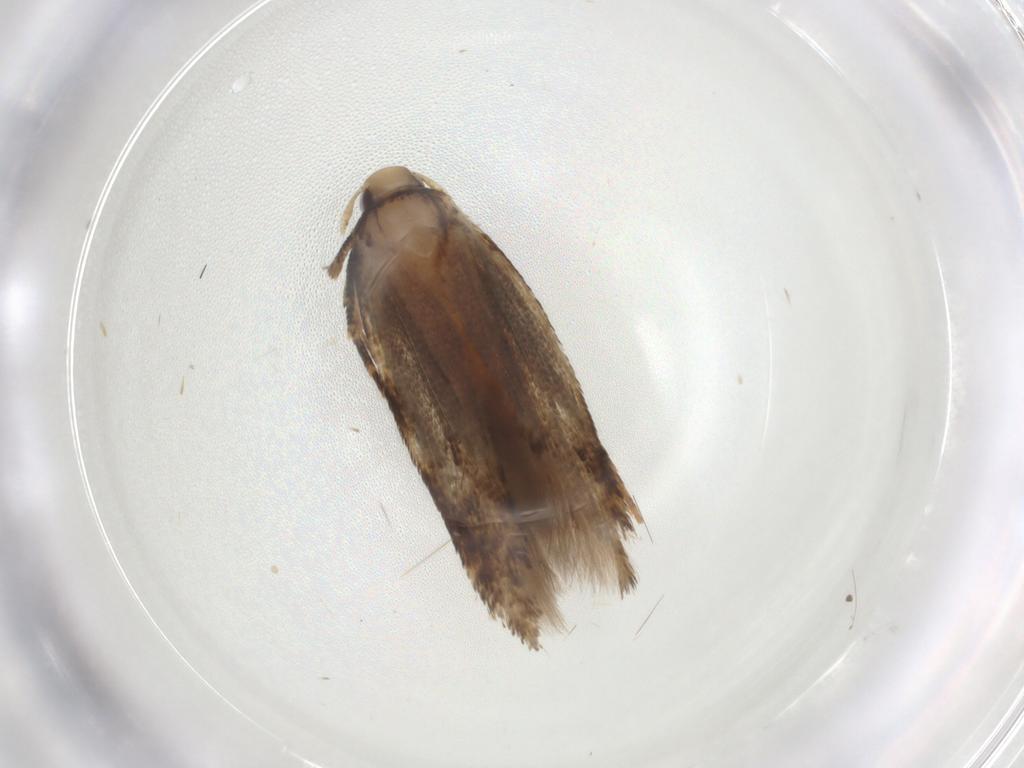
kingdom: Animalia
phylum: Arthropoda
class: Insecta
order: Lepidoptera
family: Cosmopterigidae
